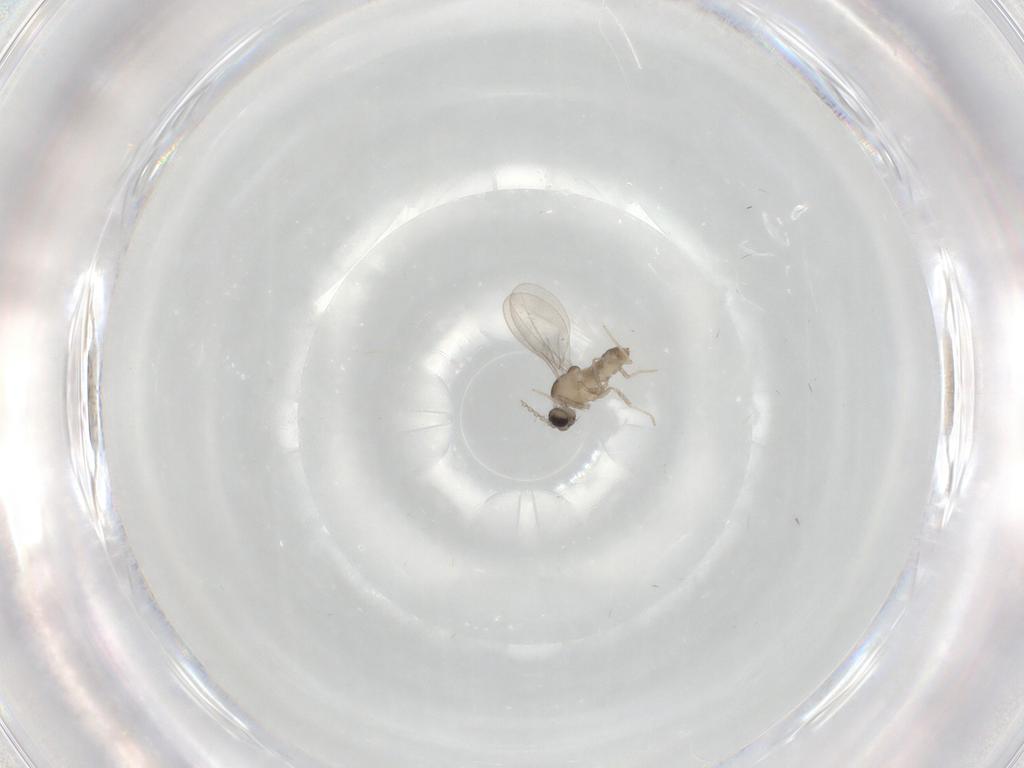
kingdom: Animalia
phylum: Arthropoda
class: Insecta
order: Diptera
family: Cecidomyiidae
